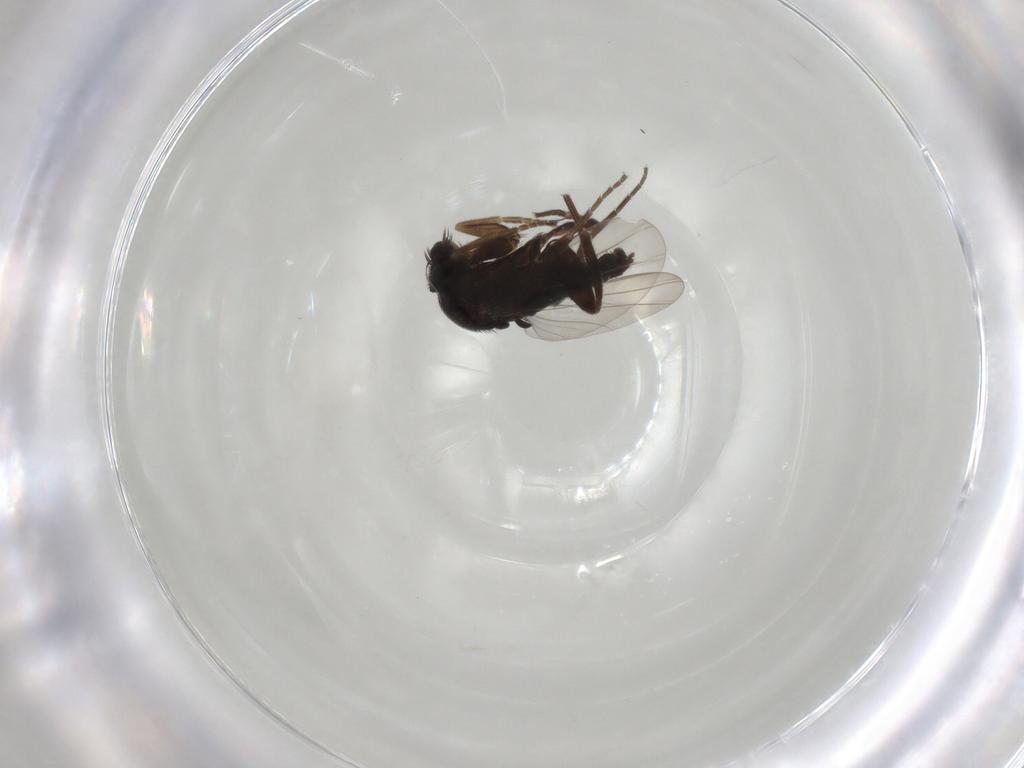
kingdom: Animalia
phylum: Arthropoda
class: Insecta
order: Diptera
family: Phoridae
